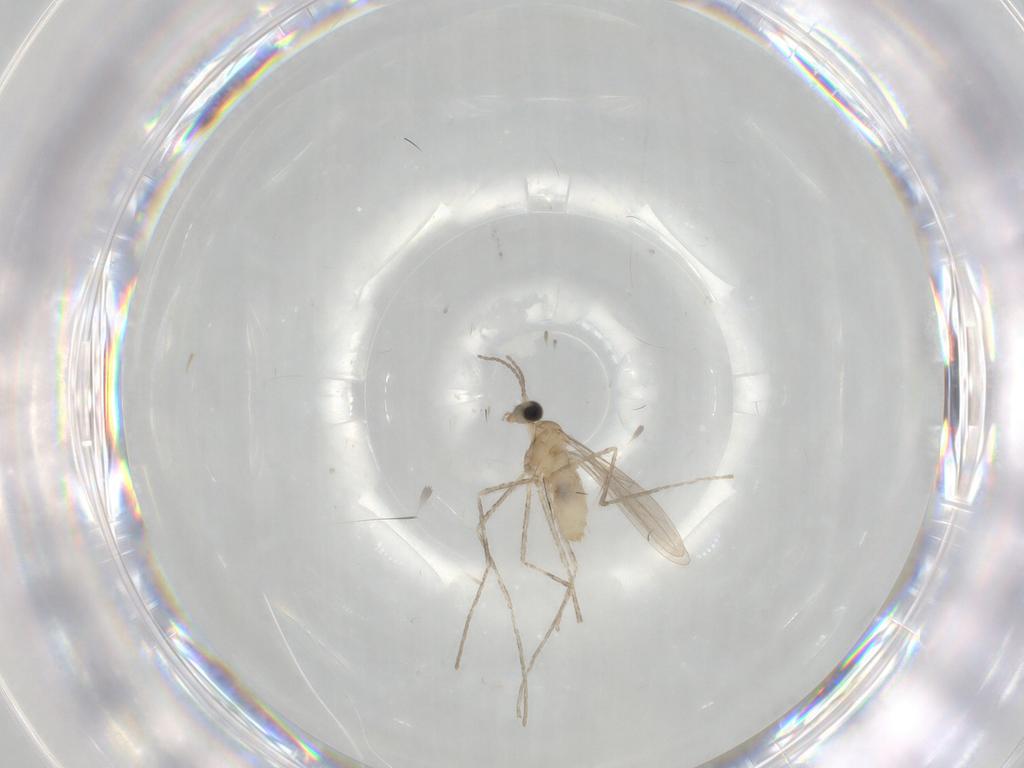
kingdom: Animalia
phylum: Arthropoda
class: Insecta
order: Diptera
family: Cecidomyiidae
